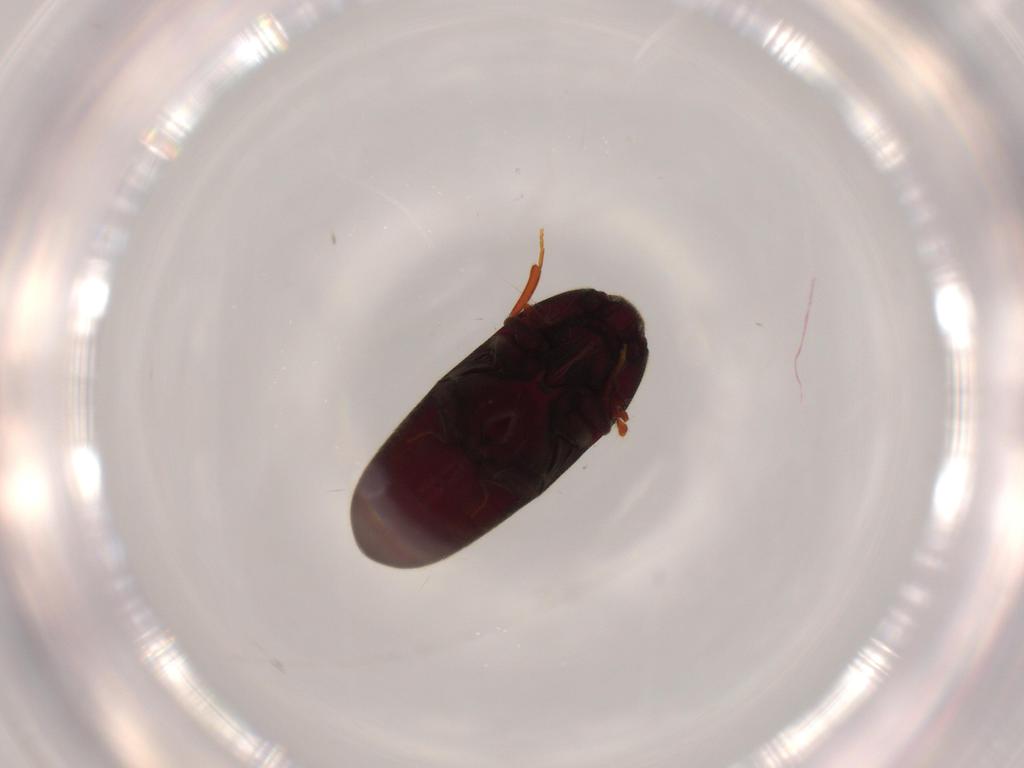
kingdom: Animalia
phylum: Arthropoda
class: Insecta
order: Coleoptera
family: Throscidae
